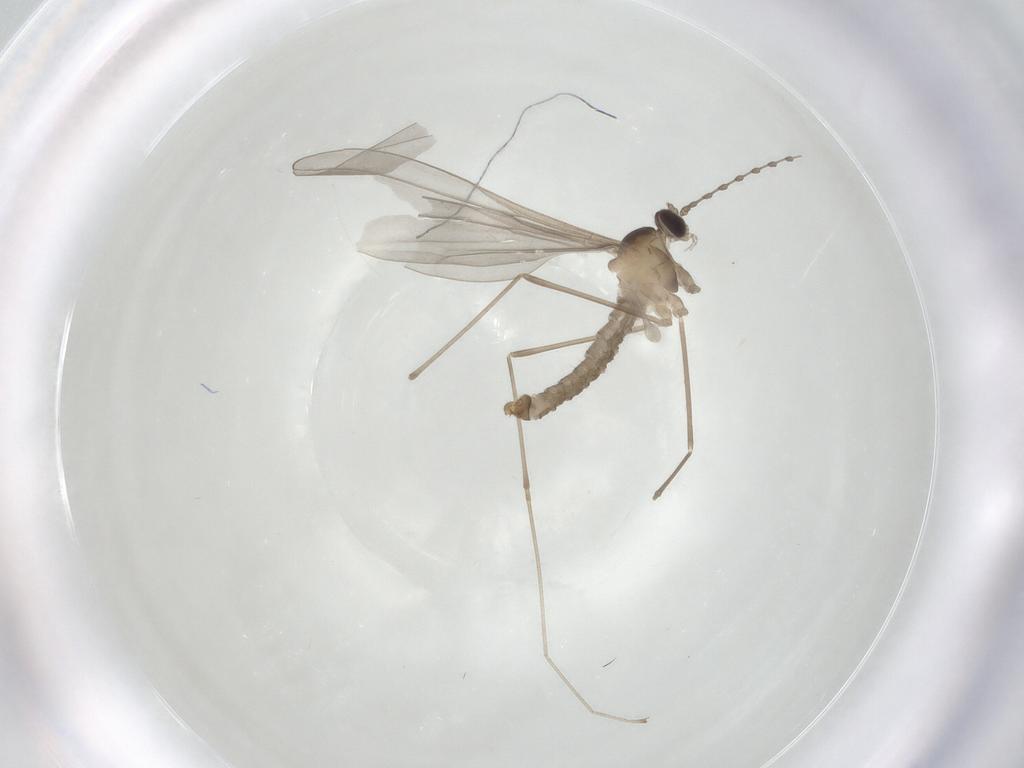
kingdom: Animalia
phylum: Arthropoda
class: Insecta
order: Diptera
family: Cecidomyiidae
